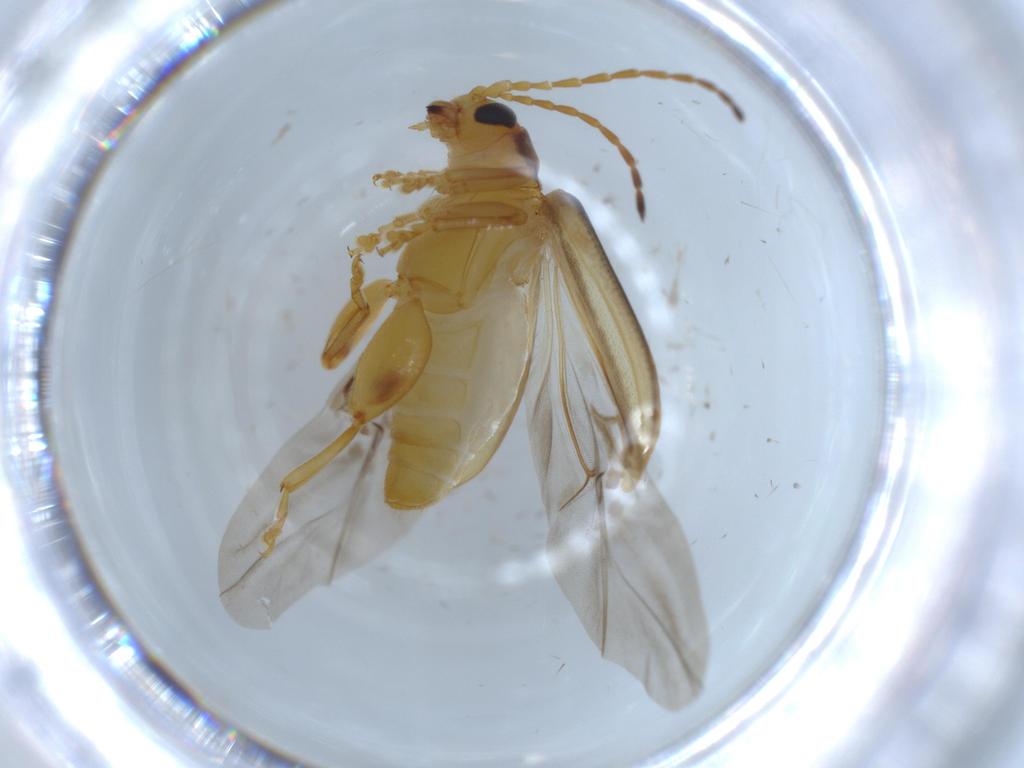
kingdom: Animalia
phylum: Arthropoda
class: Insecta
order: Coleoptera
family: Chrysomelidae
